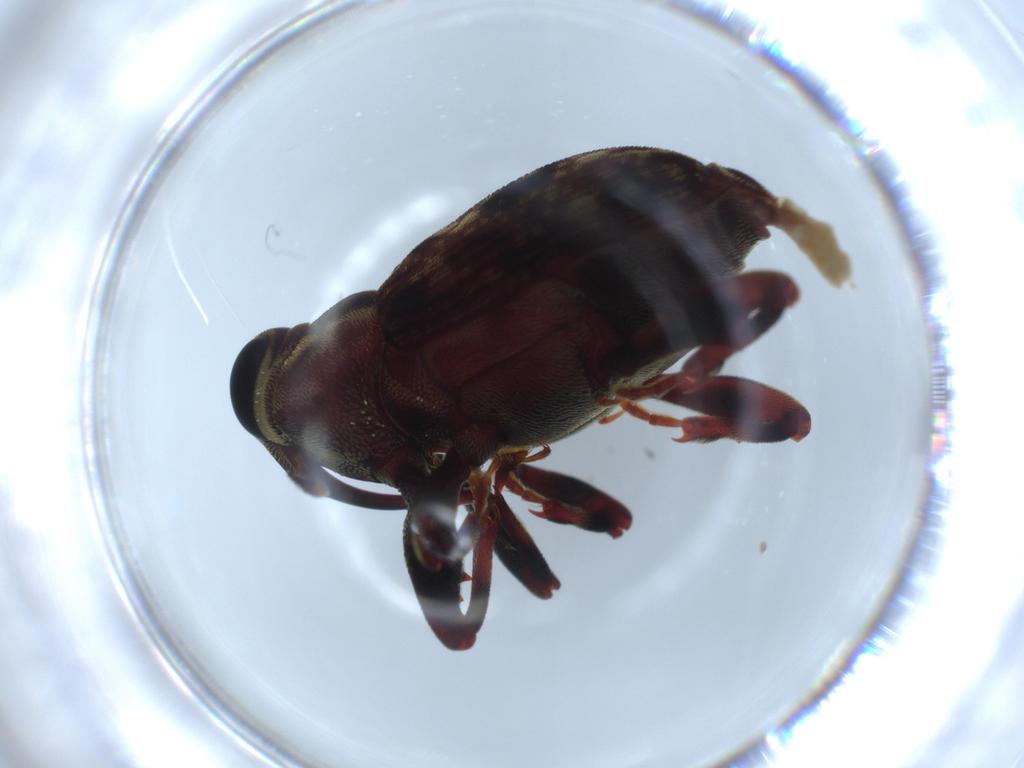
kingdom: Animalia
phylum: Arthropoda
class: Insecta
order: Coleoptera
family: Curculionidae
